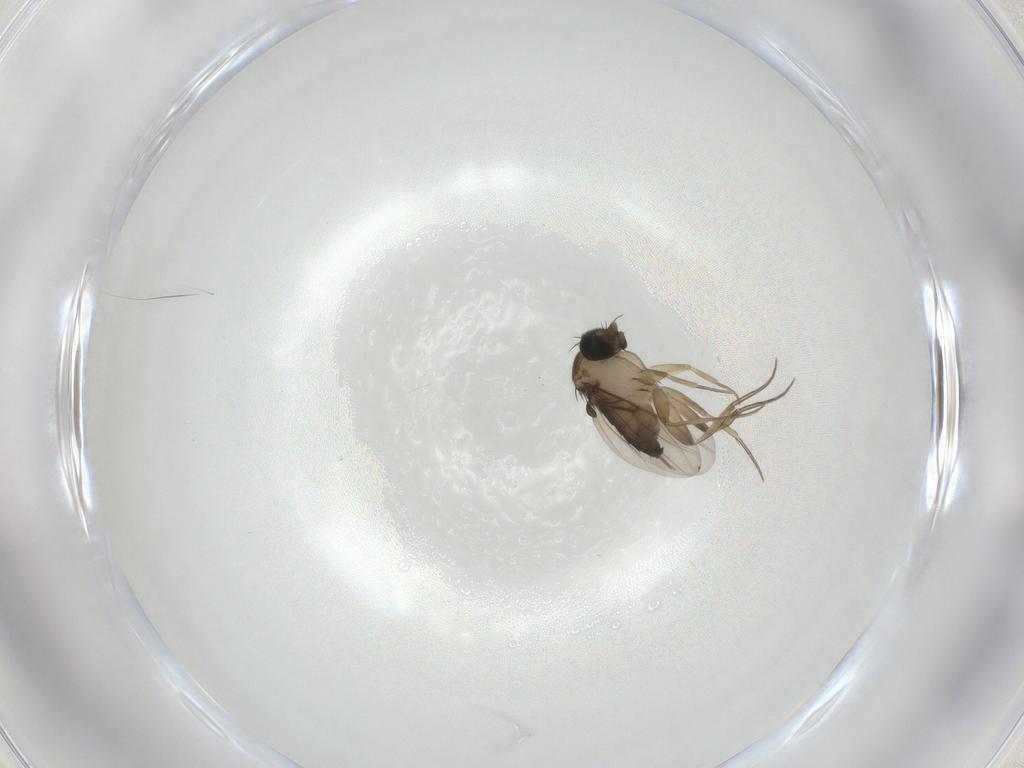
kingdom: Animalia
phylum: Arthropoda
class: Insecta
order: Diptera
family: Phoridae
